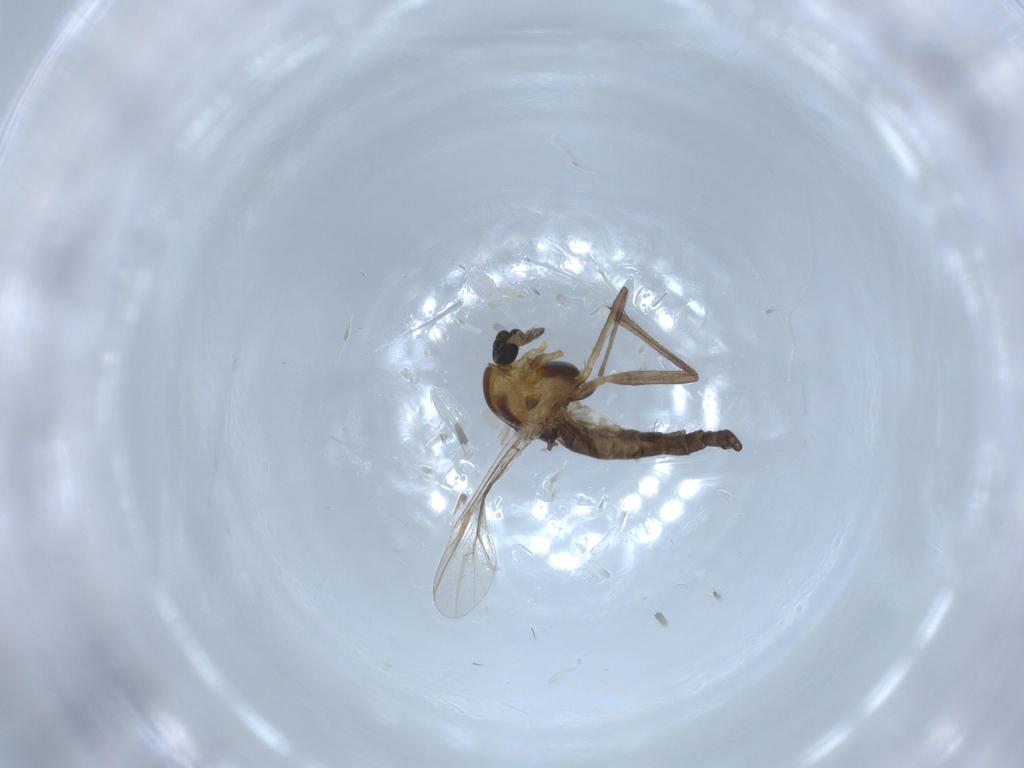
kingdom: Animalia
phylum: Arthropoda
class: Insecta
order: Diptera
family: Chironomidae
